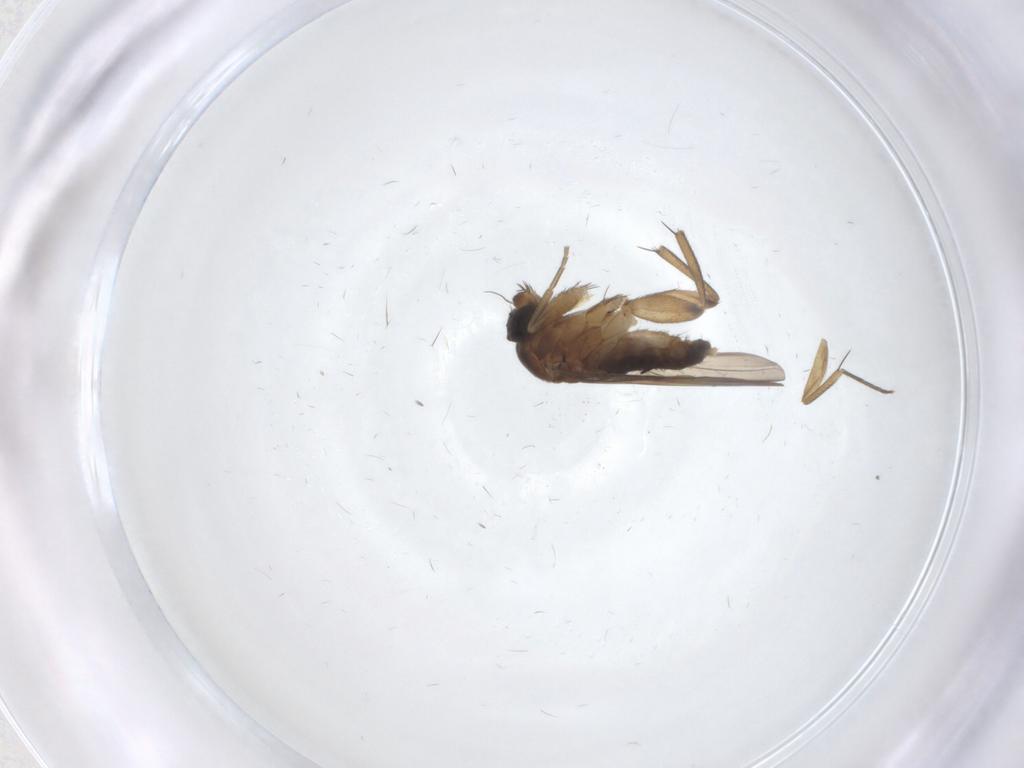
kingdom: Animalia
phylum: Arthropoda
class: Insecta
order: Diptera
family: Phoridae
